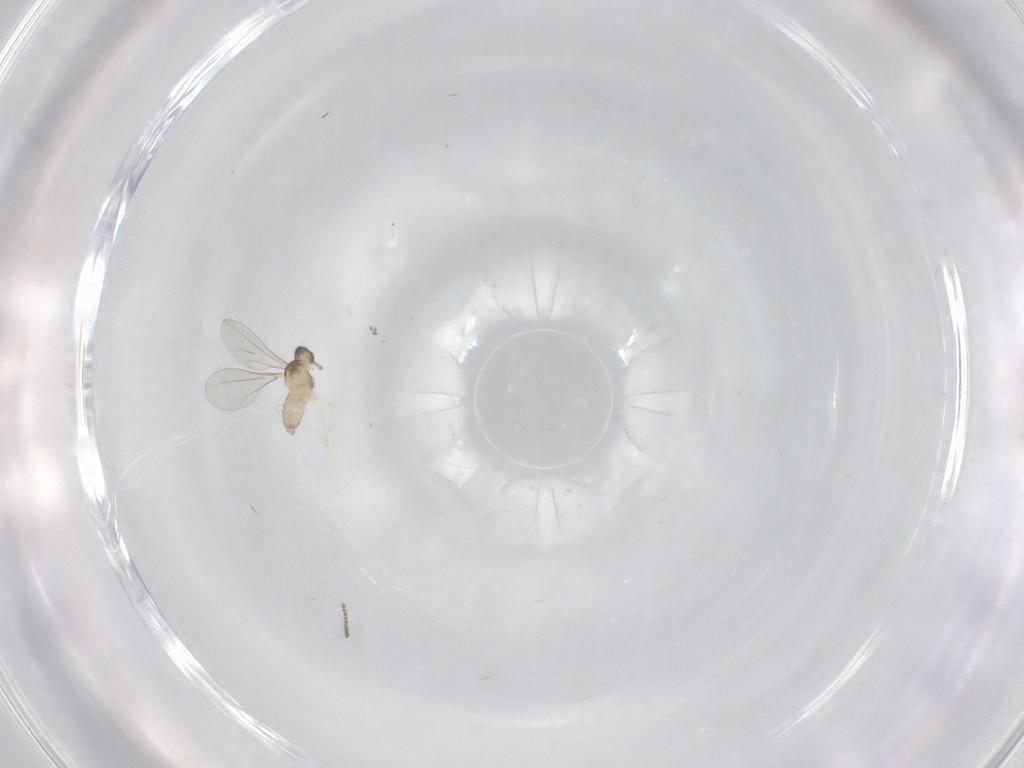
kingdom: Animalia
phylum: Arthropoda
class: Insecta
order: Diptera
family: Cecidomyiidae
